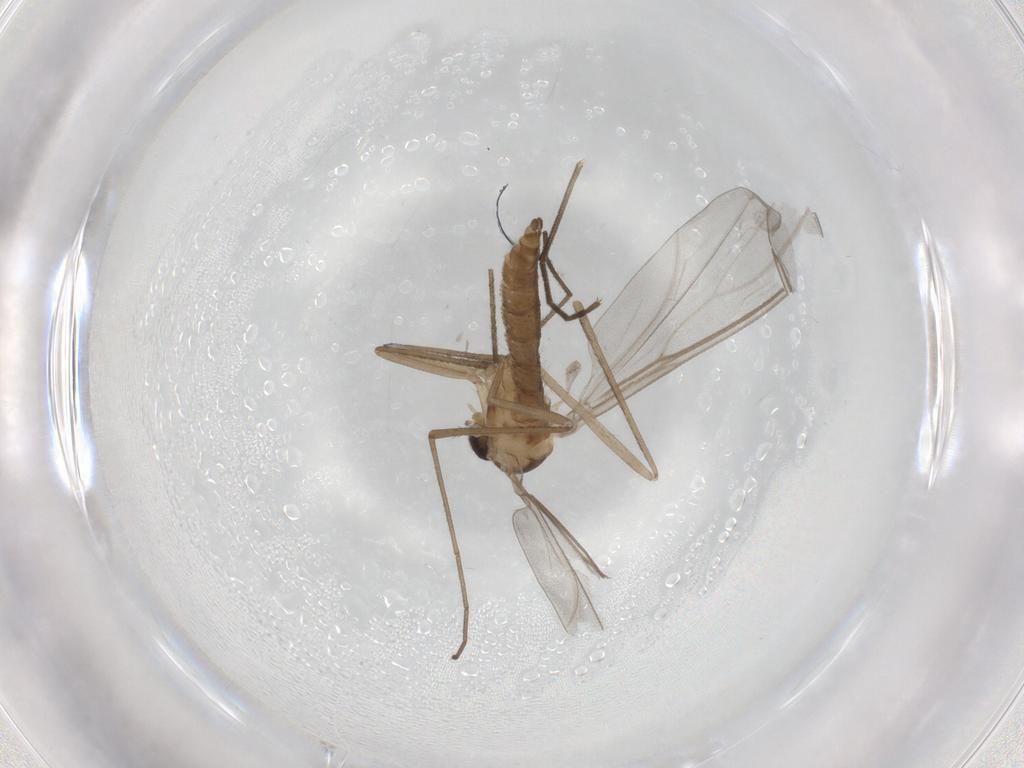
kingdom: Animalia
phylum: Arthropoda
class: Insecta
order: Diptera
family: Cecidomyiidae
